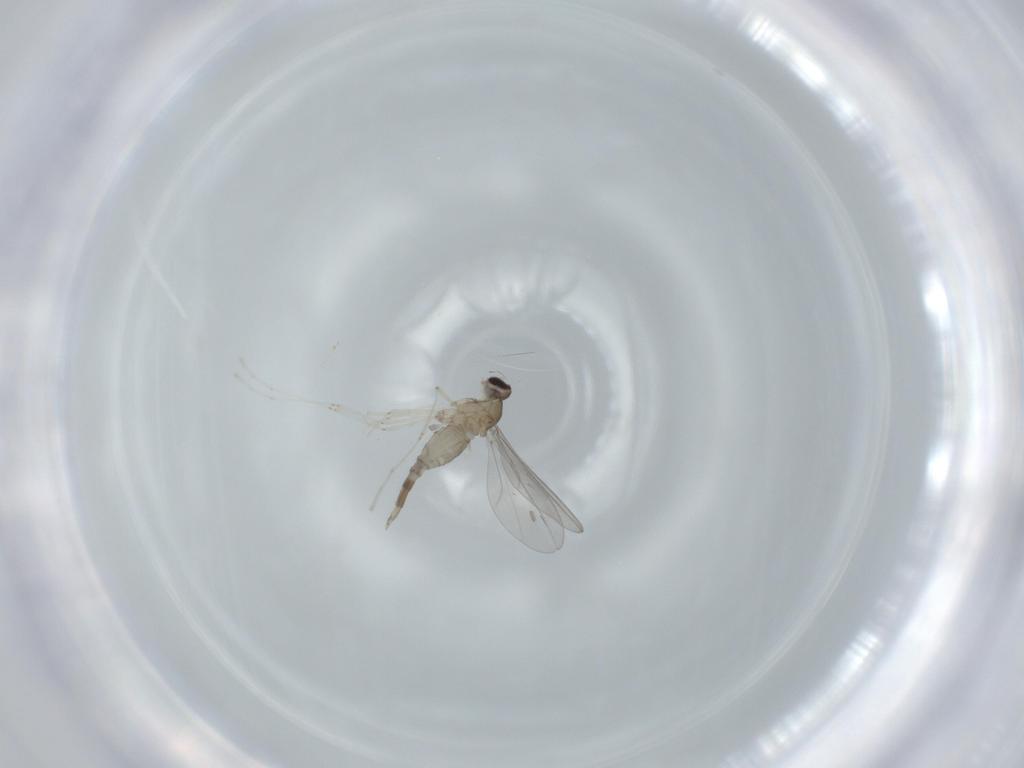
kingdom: Animalia
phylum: Arthropoda
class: Insecta
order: Diptera
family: Cecidomyiidae
